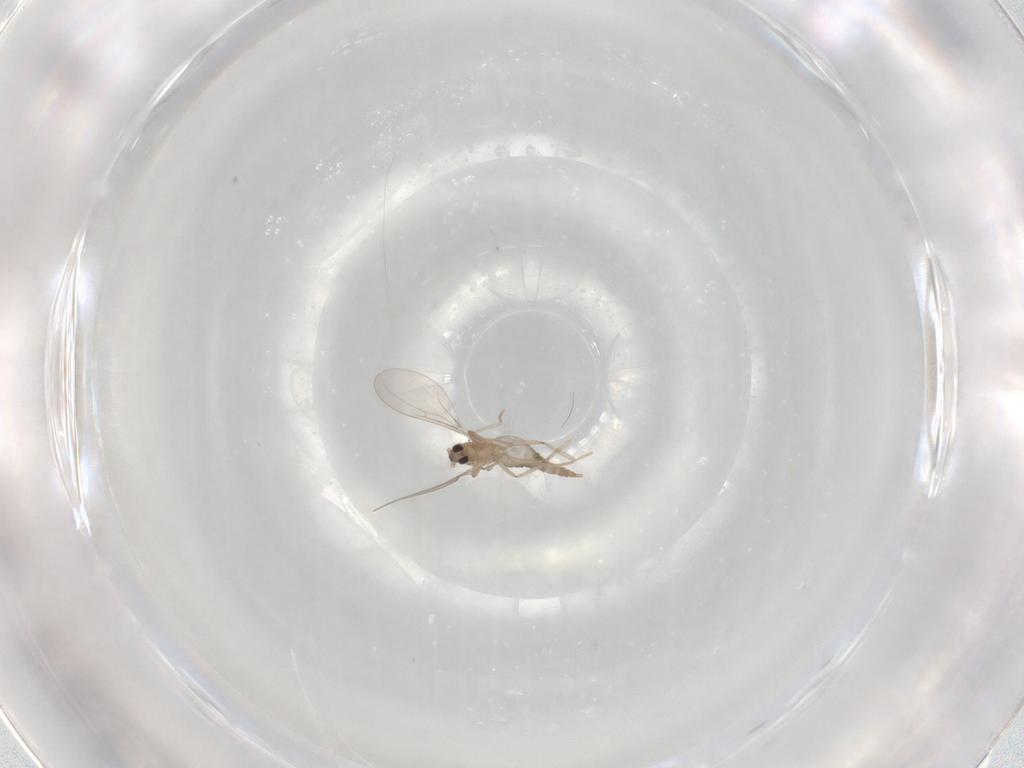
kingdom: Animalia
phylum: Arthropoda
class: Insecta
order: Diptera
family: Cecidomyiidae
